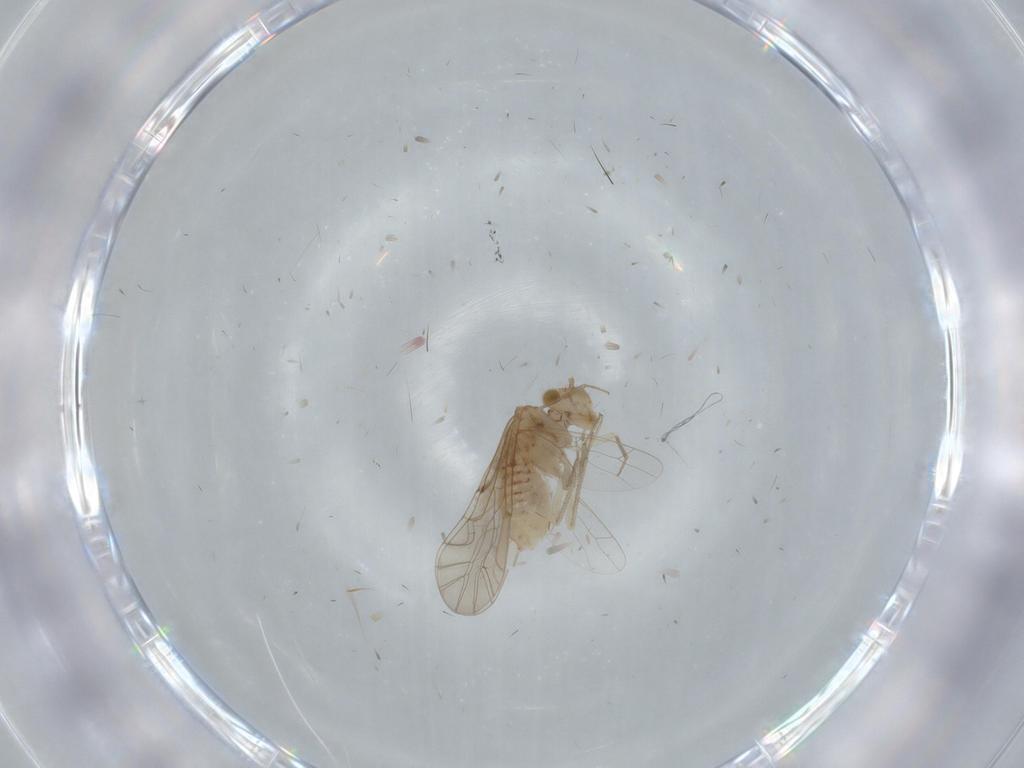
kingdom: Animalia
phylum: Arthropoda
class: Insecta
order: Psocodea
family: Lachesillidae
